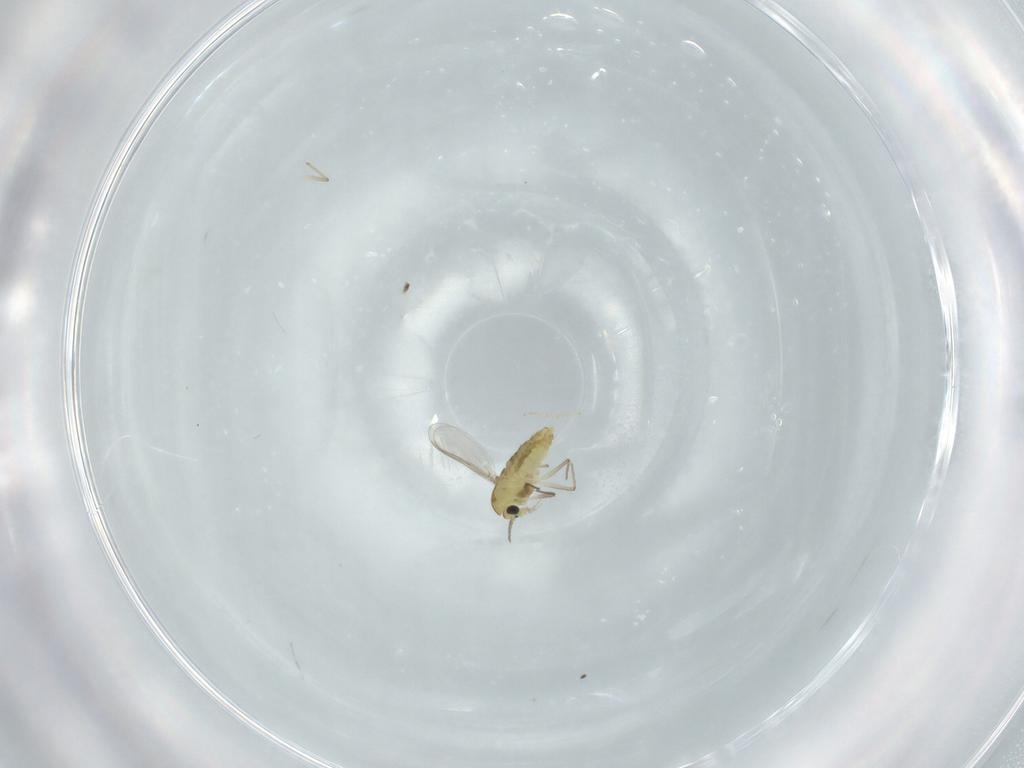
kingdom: Animalia
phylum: Arthropoda
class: Insecta
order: Diptera
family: Chironomidae
